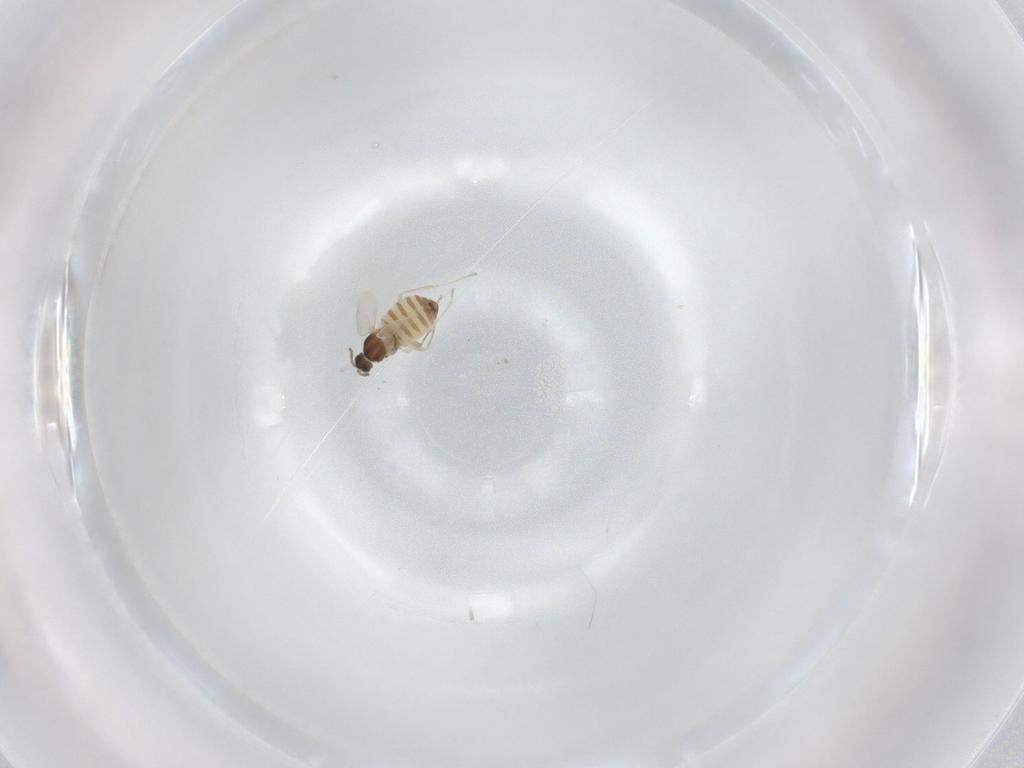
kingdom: Animalia
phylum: Arthropoda
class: Insecta
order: Diptera
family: Cecidomyiidae
